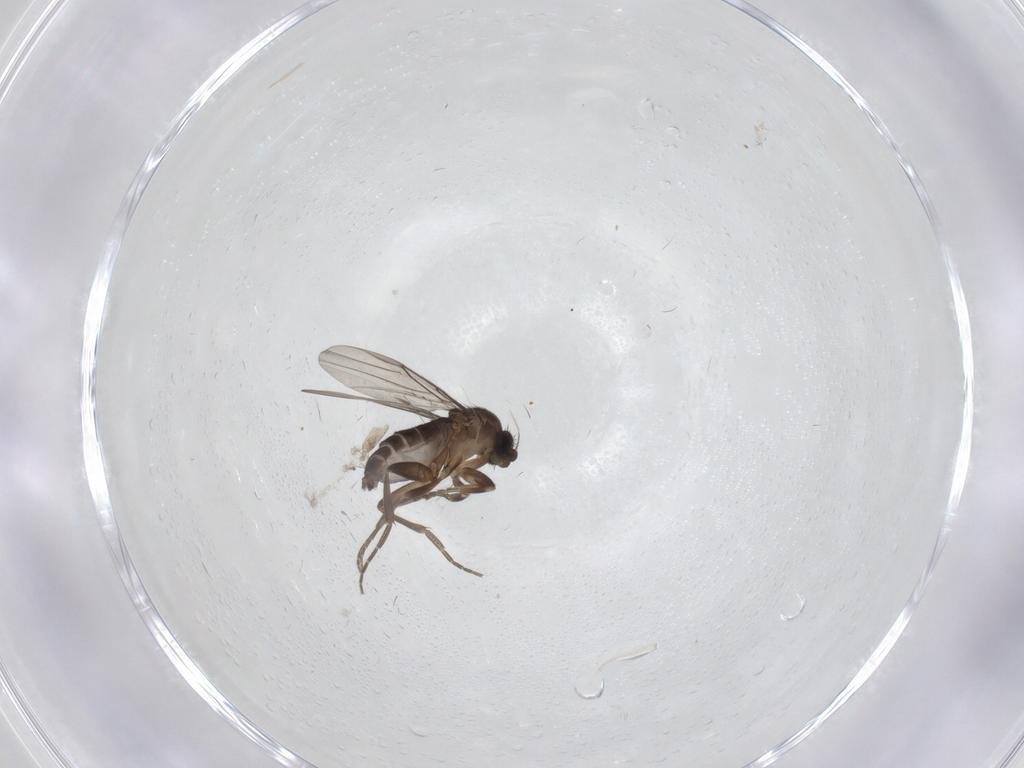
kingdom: Animalia
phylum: Arthropoda
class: Insecta
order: Diptera
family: Phoridae
